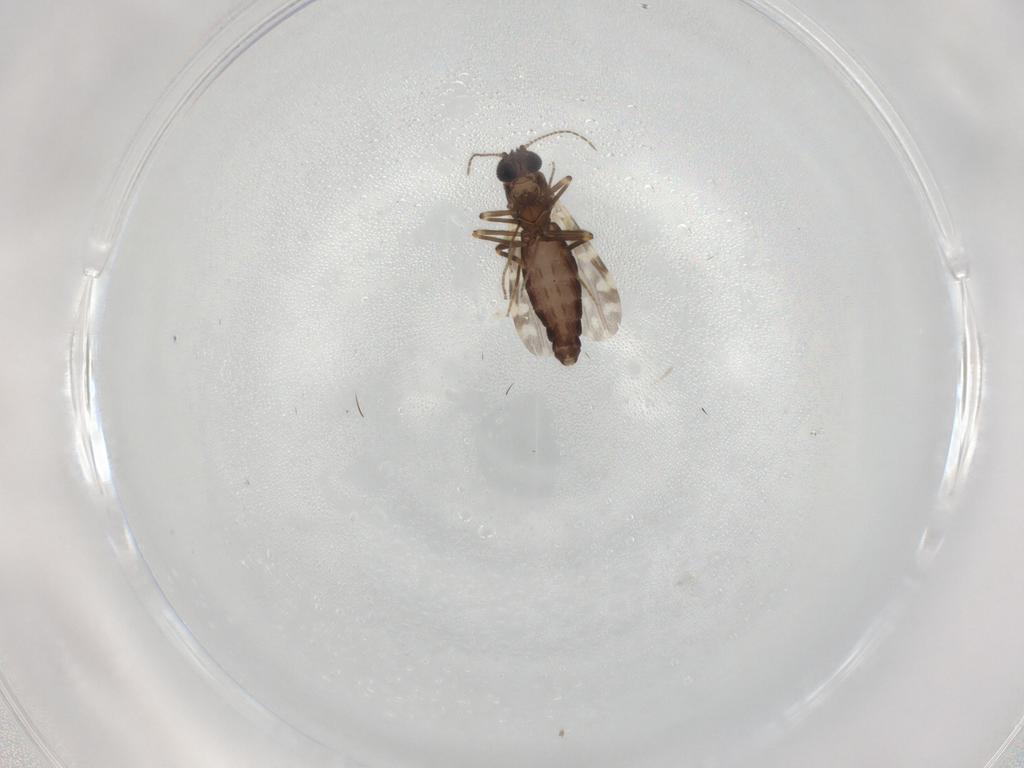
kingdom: Animalia
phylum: Arthropoda
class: Insecta
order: Diptera
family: Ceratopogonidae
